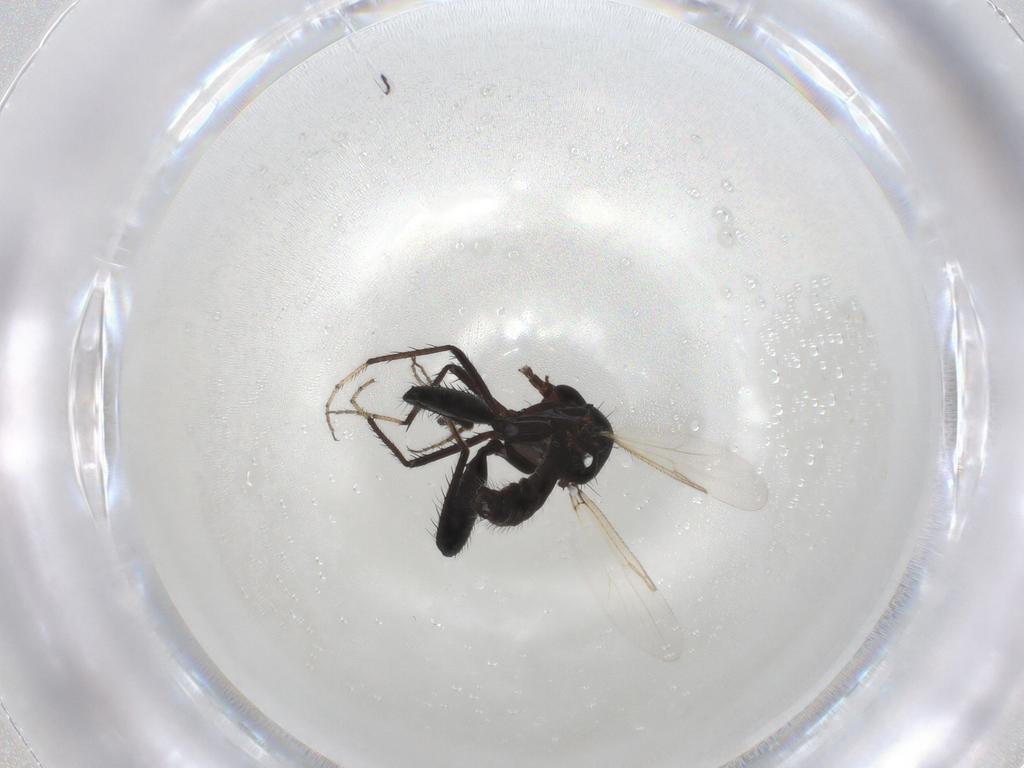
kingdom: Animalia
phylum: Arthropoda
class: Insecta
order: Diptera
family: Ceratopogonidae
